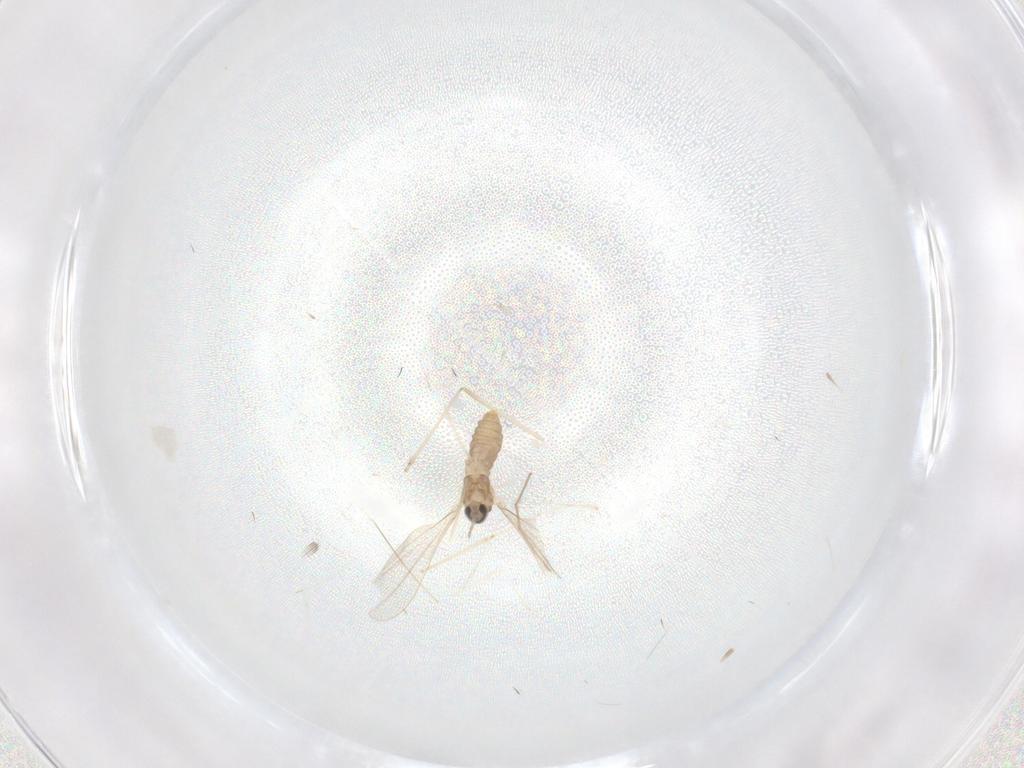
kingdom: Animalia
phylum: Arthropoda
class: Insecta
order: Diptera
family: Cecidomyiidae
